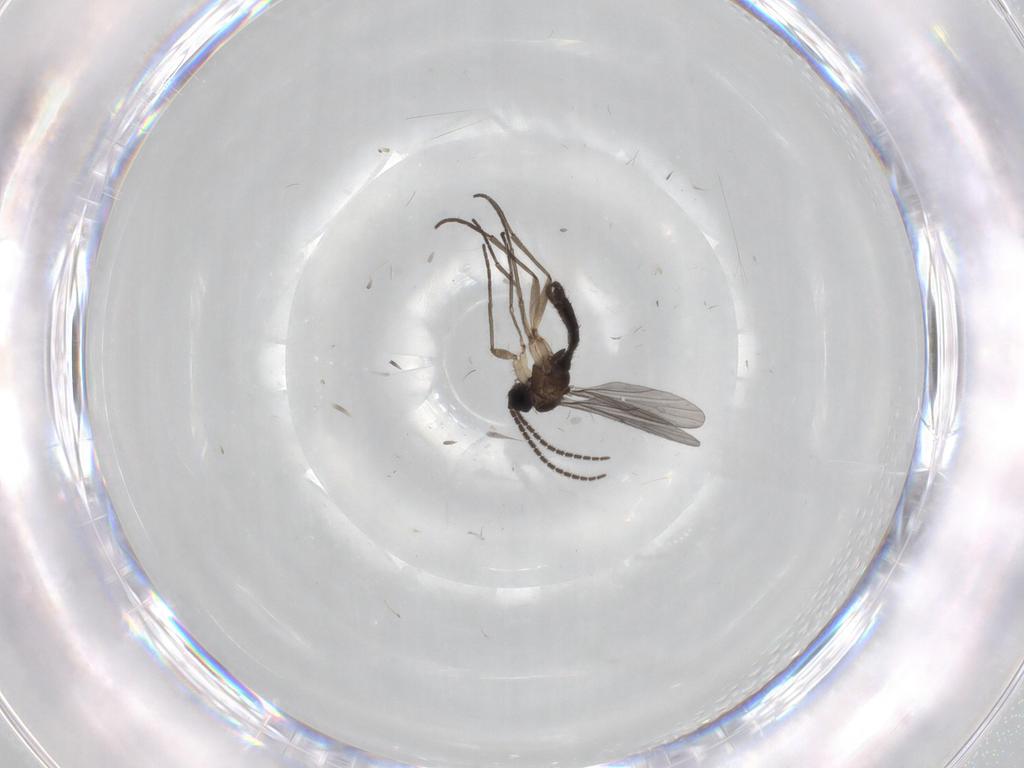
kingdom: Animalia
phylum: Arthropoda
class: Insecta
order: Diptera
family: Sciaridae
